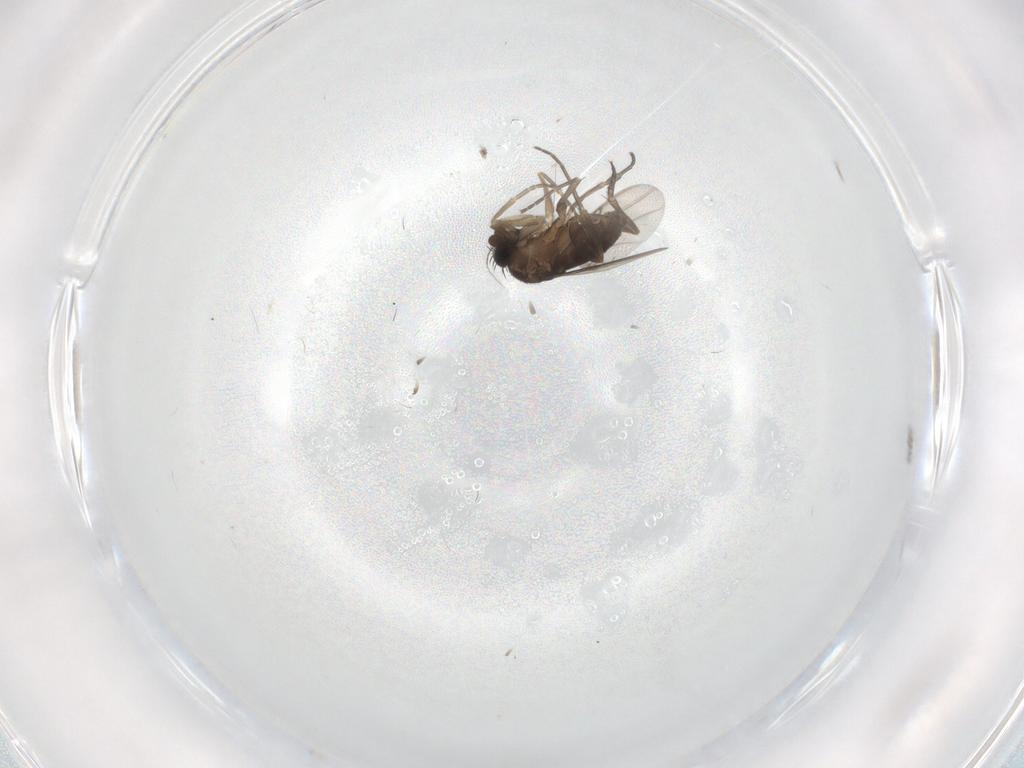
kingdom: Animalia
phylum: Arthropoda
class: Insecta
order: Diptera
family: Phoridae
